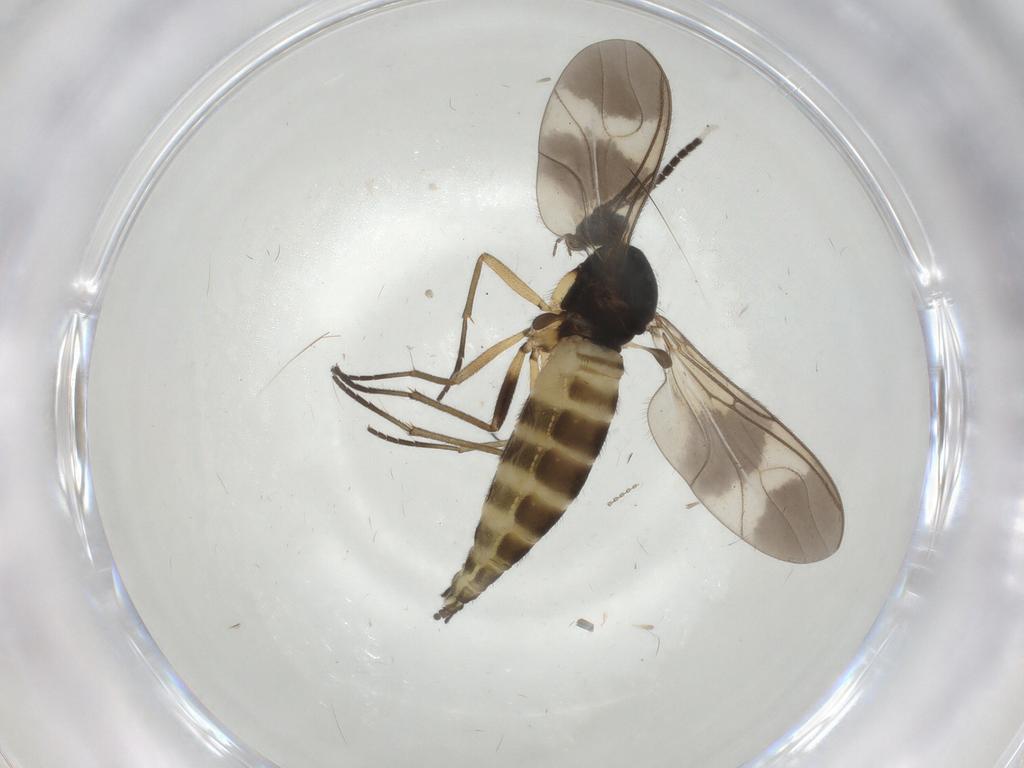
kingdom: Animalia
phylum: Arthropoda
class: Insecta
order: Diptera
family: Sciaridae
